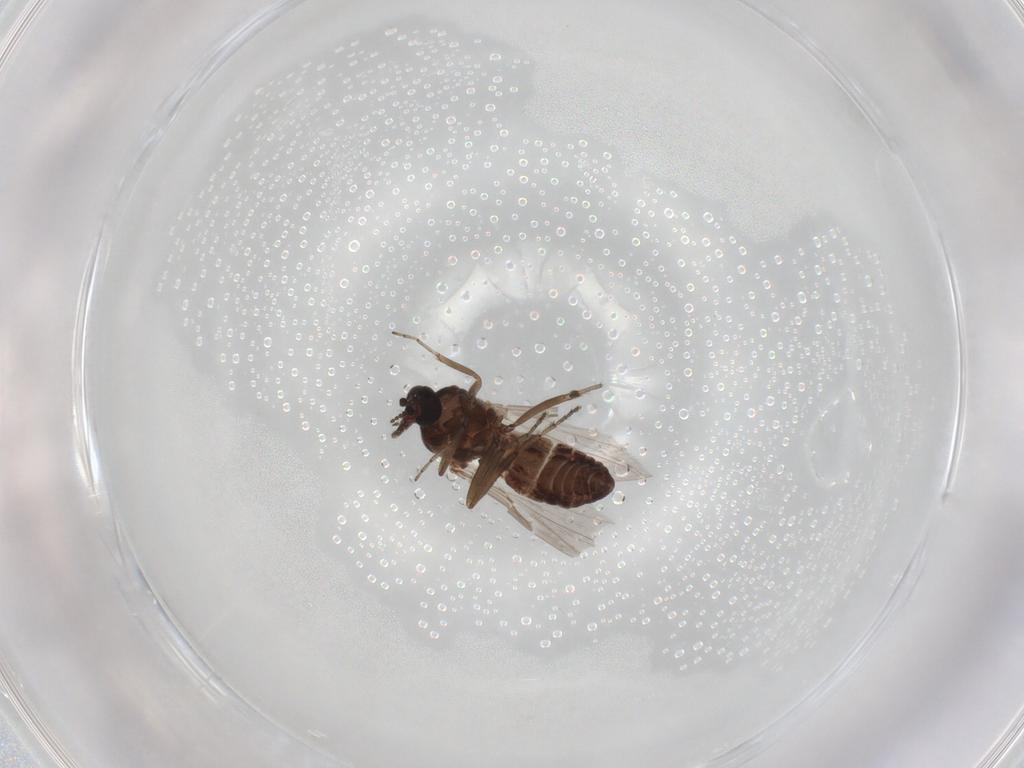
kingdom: Animalia
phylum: Arthropoda
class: Insecta
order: Diptera
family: Ceratopogonidae
